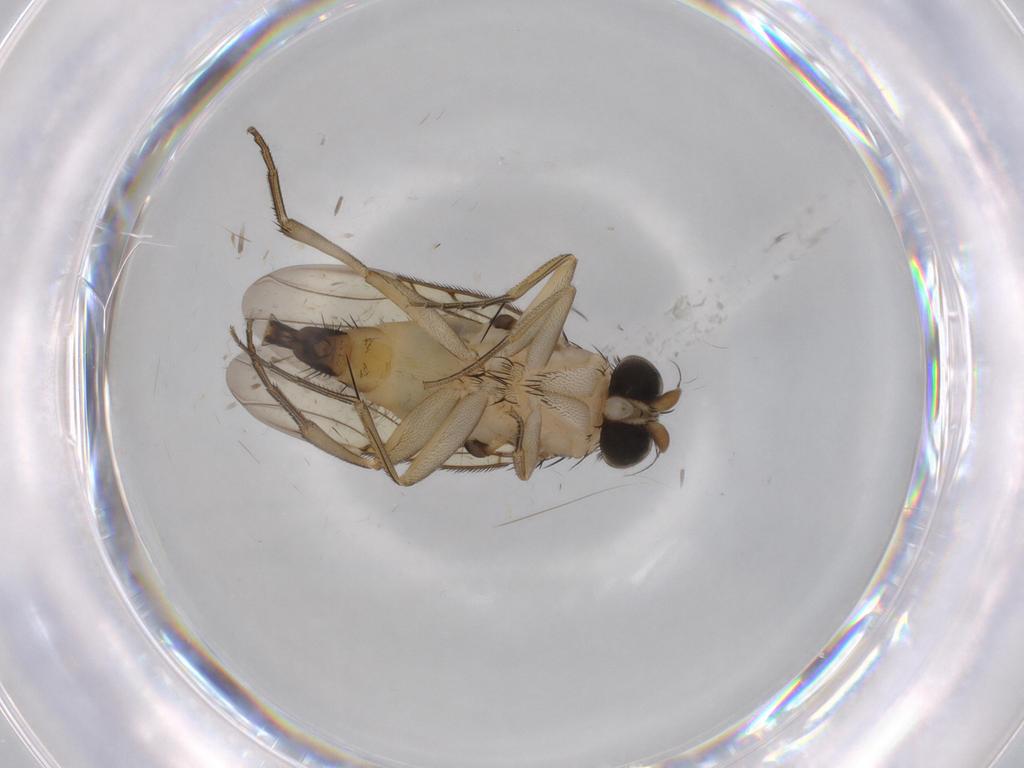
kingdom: Animalia
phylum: Arthropoda
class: Insecta
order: Diptera
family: Phoridae
